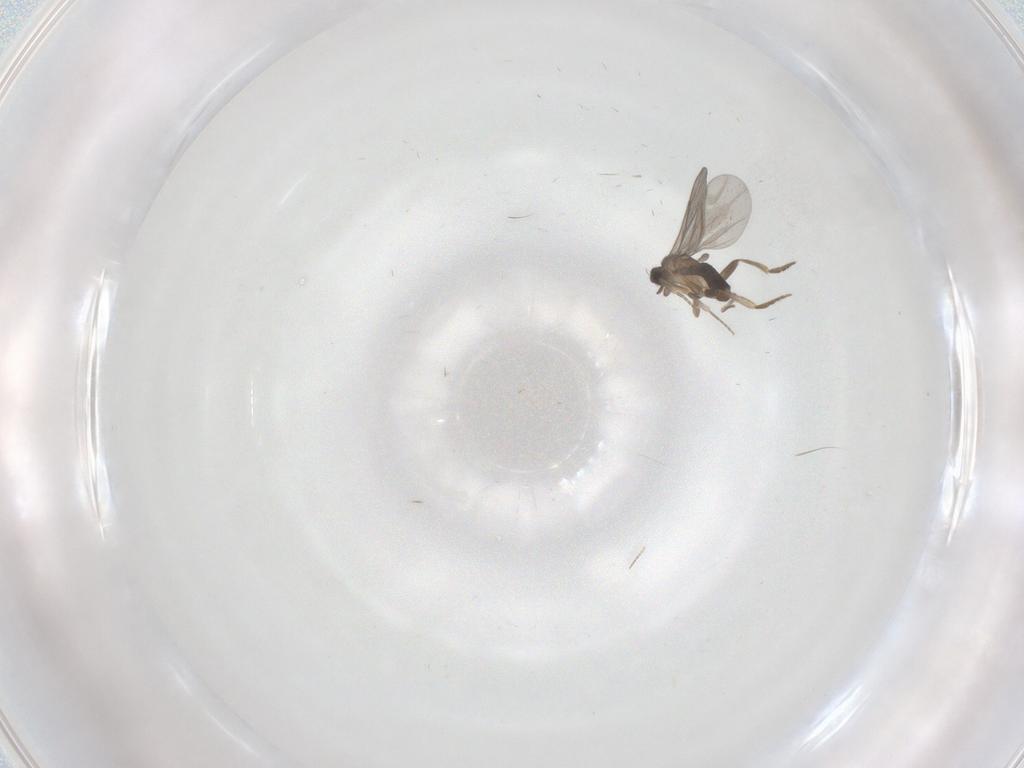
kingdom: Animalia
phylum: Arthropoda
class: Insecta
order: Diptera
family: Chironomidae
